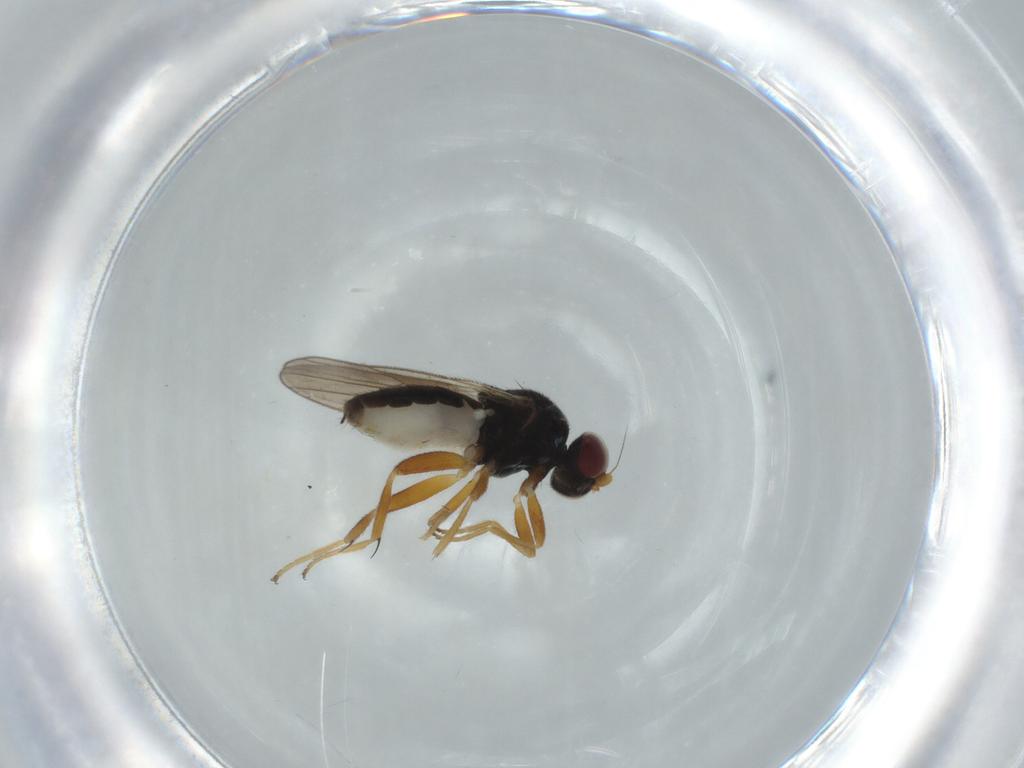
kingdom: Animalia
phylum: Arthropoda
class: Insecta
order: Diptera
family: Chloropidae
